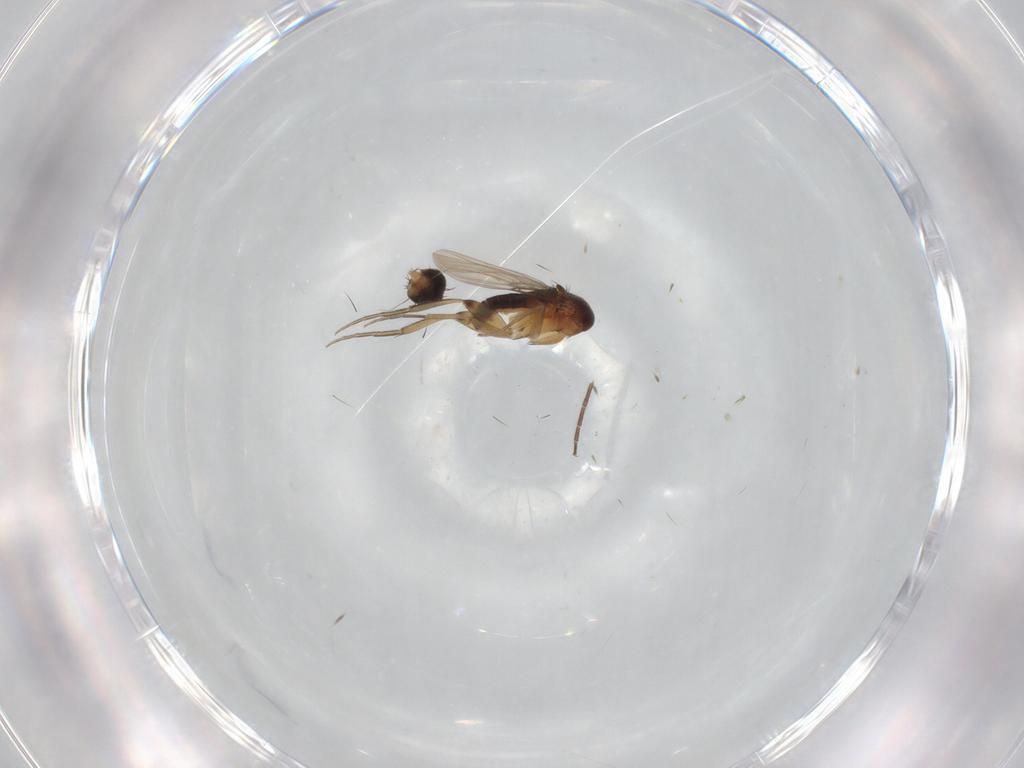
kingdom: Animalia
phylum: Arthropoda
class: Insecta
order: Diptera
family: Phoridae
